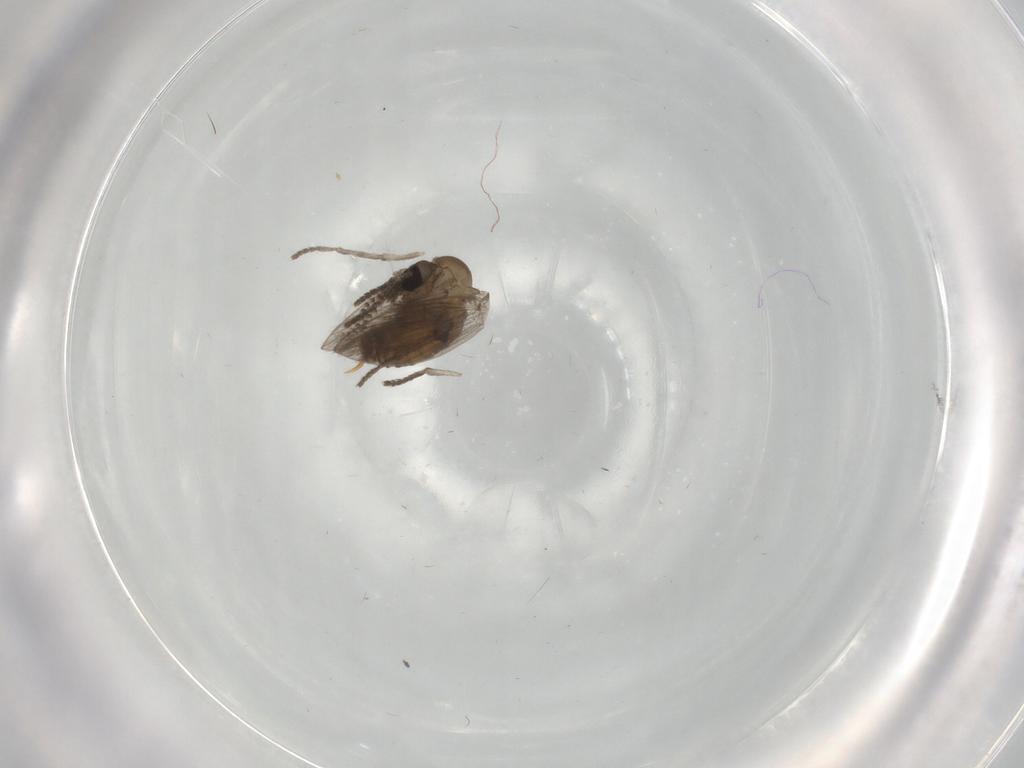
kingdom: Animalia
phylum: Arthropoda
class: Insecta
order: Diptera
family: Psychodidae
